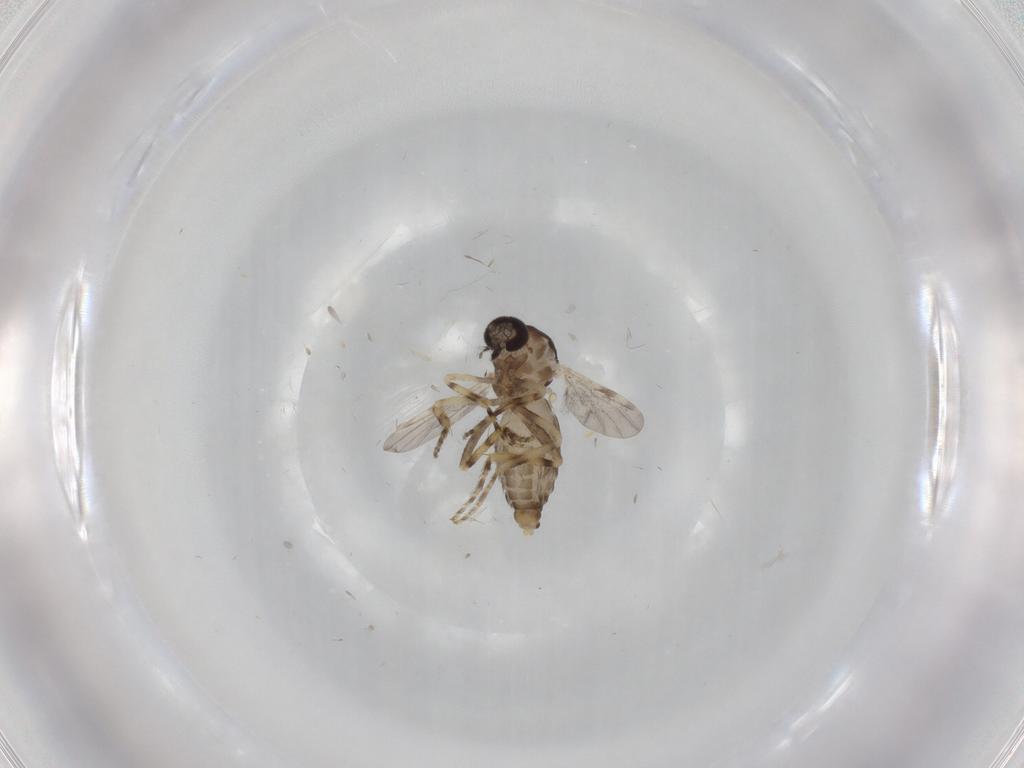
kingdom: Animalia
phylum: Arthropoda
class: Insecta
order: Diptera
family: Ceratopogonidae
